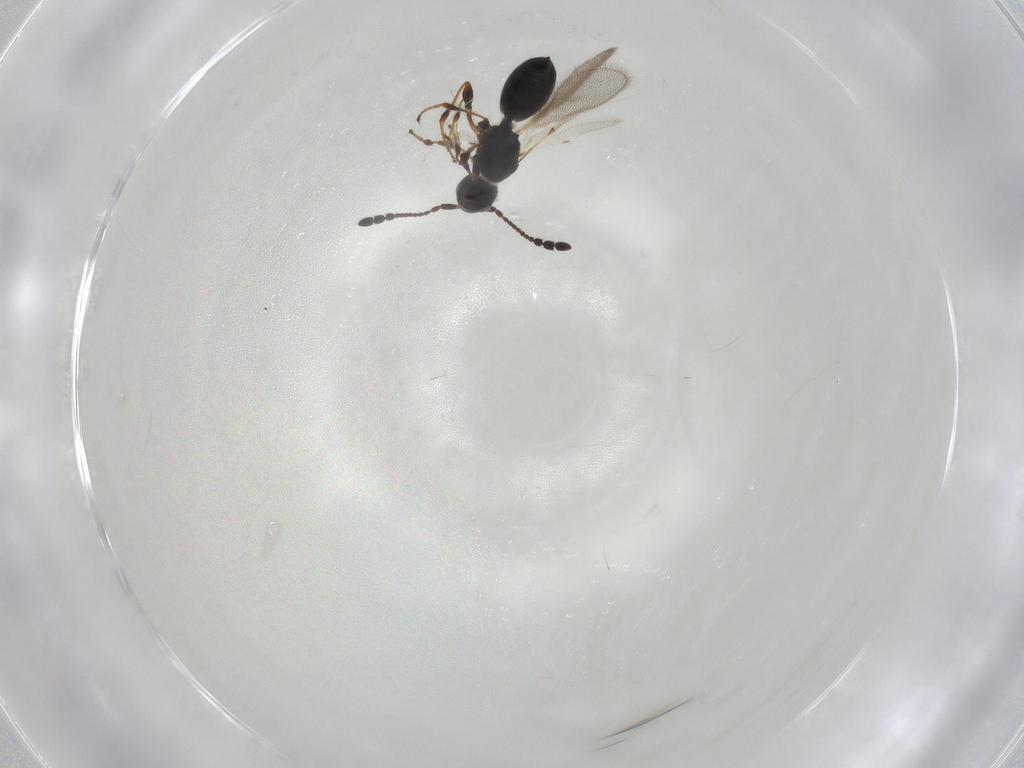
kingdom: Animalia
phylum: Arthropoda
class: Insecta
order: Hymenoptera
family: Diapriidae
